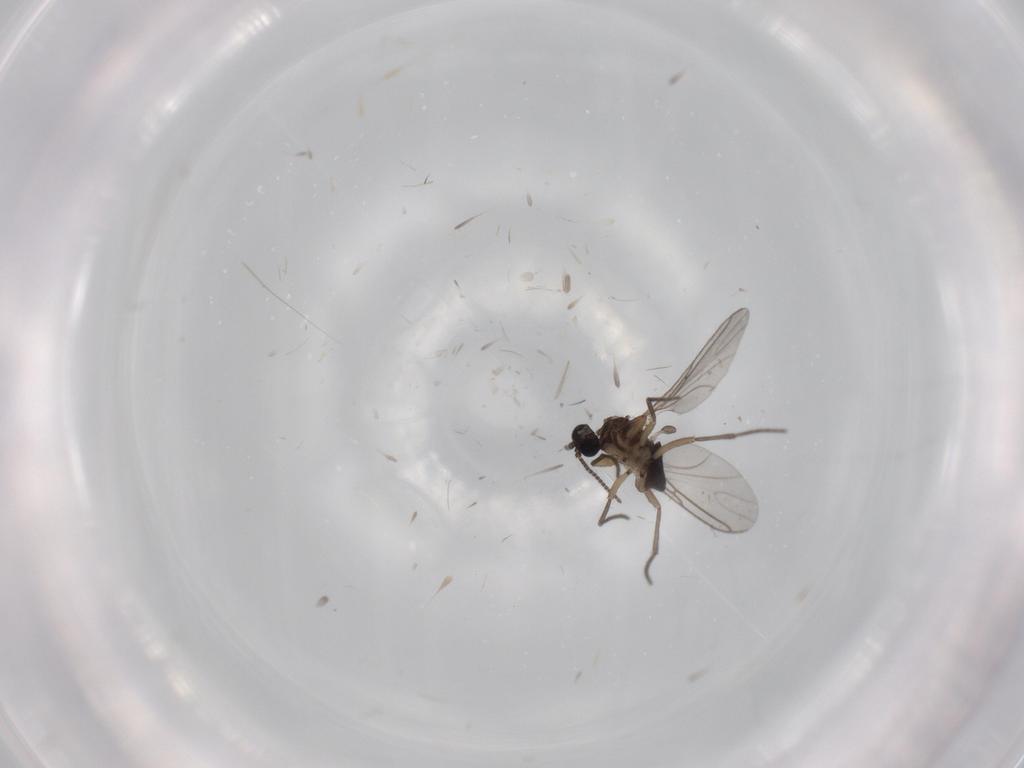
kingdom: Animalia
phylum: Arthropoda
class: Insecta
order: Diptera
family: Sciaridae
